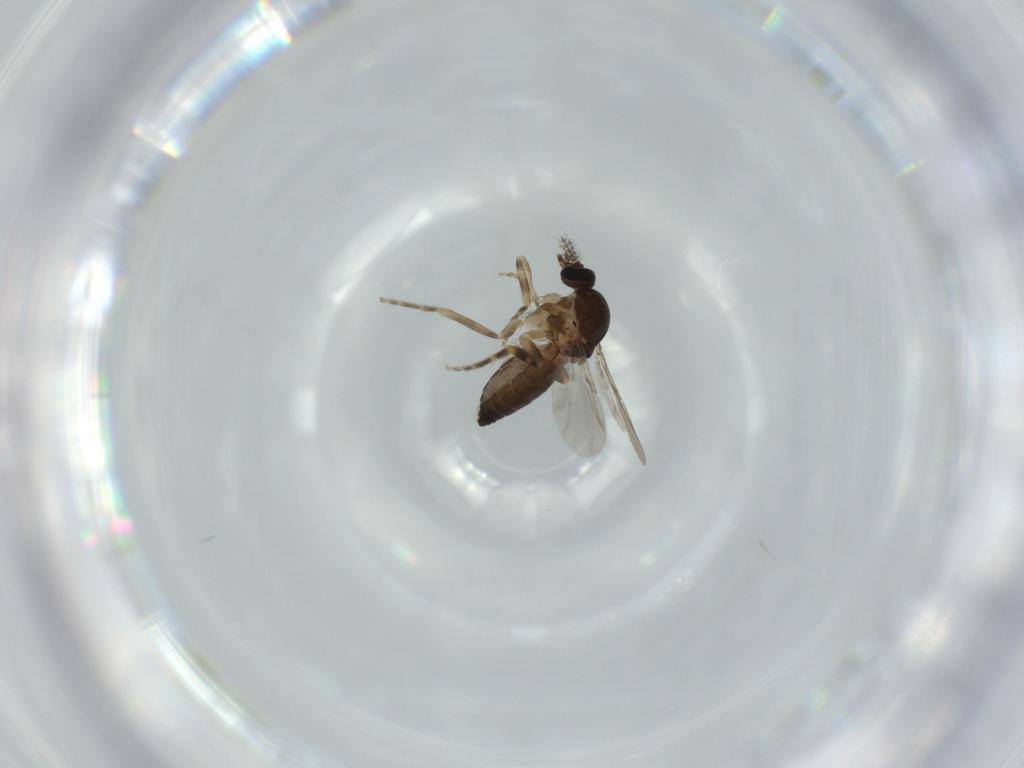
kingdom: Animalia
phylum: Arthropoda
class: Insecta
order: Diptera
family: Ceratopogonidae
